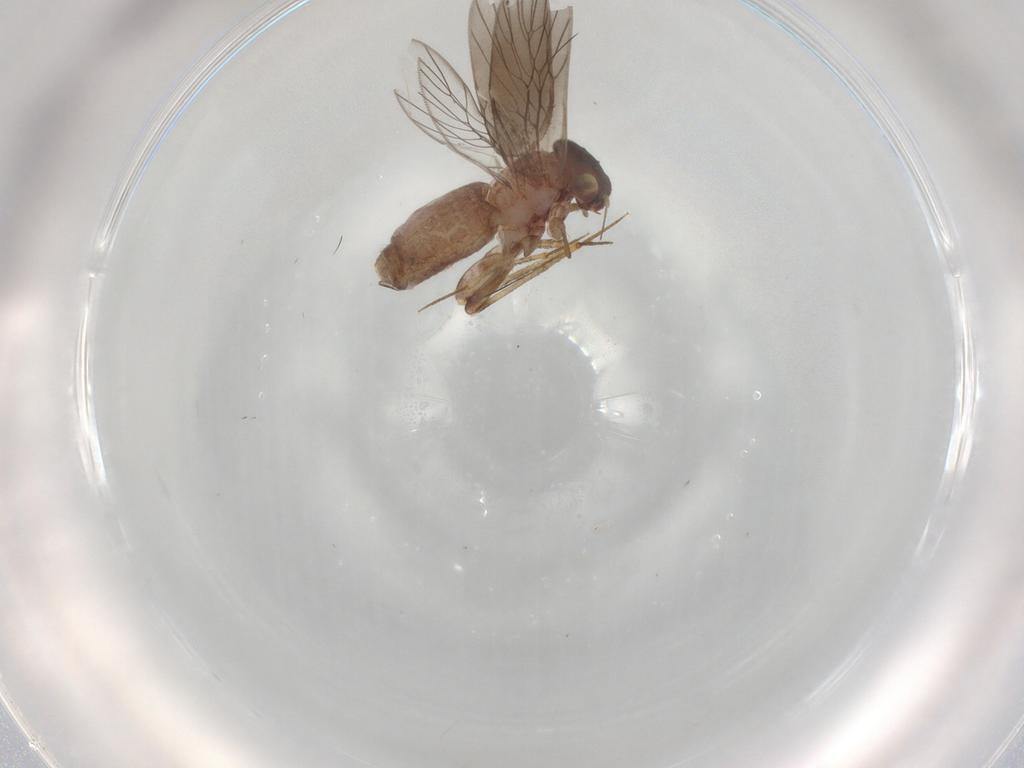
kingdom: Animalia
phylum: Arthropoda
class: Insecta
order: Psocodea
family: Lepidopsocidae
